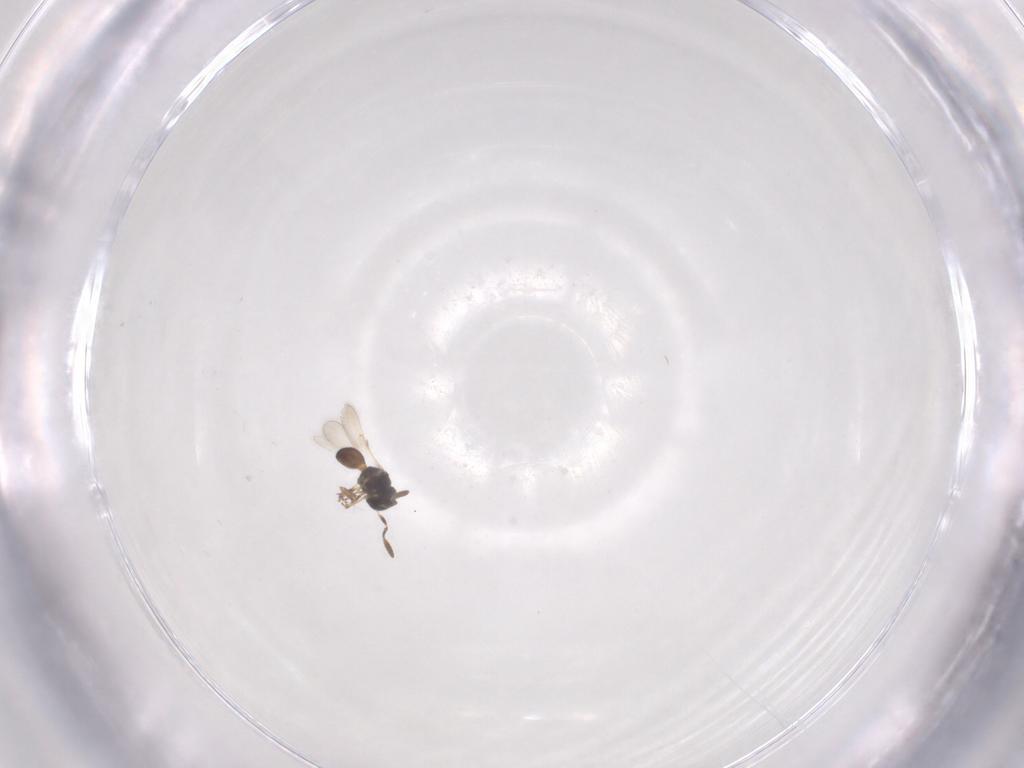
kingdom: Animalia
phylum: Arthropoda
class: Insecta
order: Hymenoptera
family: Scelionidae
